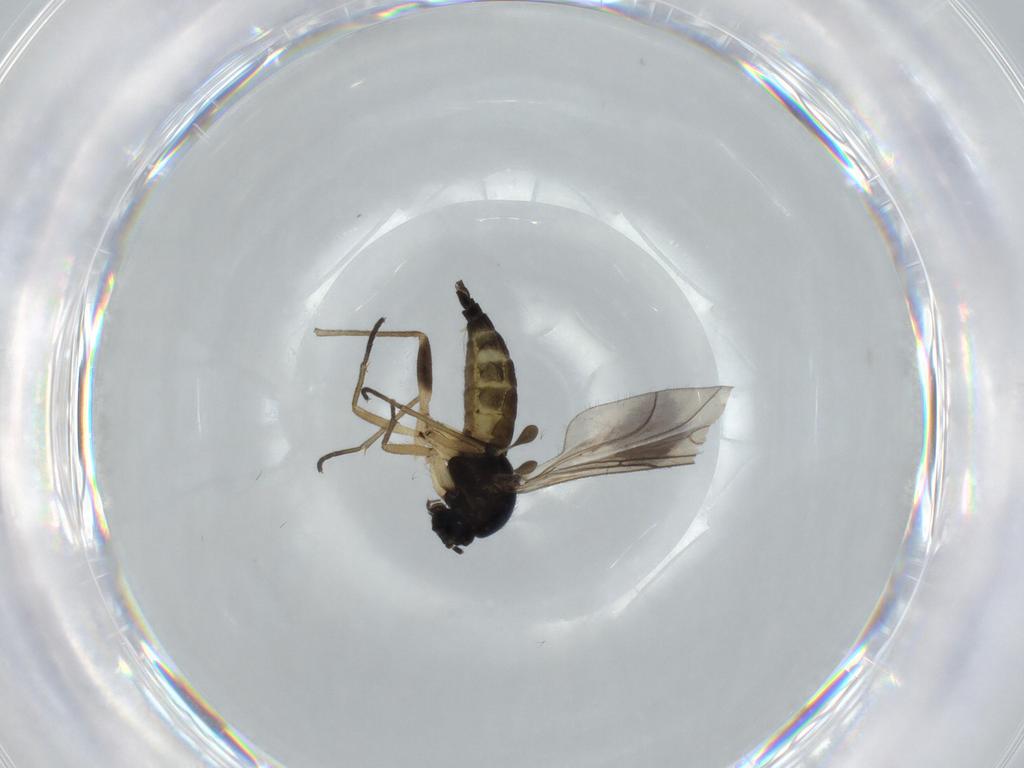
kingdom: Animalia
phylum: Arthropoda
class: Insecta
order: Diptera
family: Sciaridae
